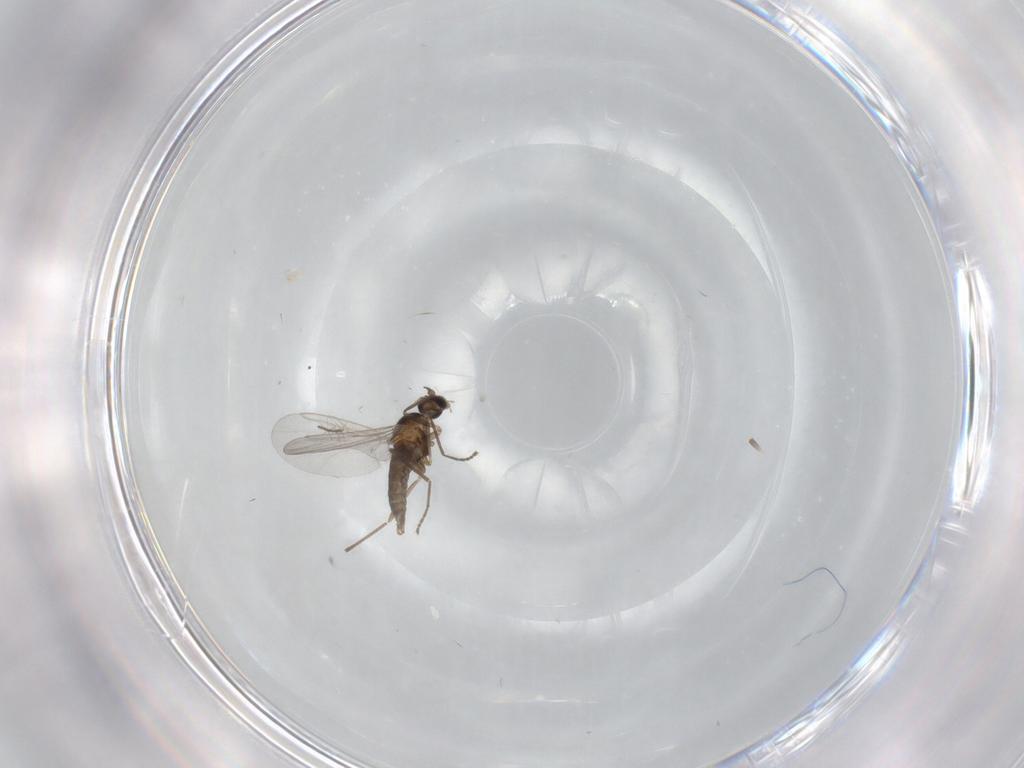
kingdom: Animalia
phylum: Arthropoda
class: Insecta
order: Diptera
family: Cecidomyiidae
